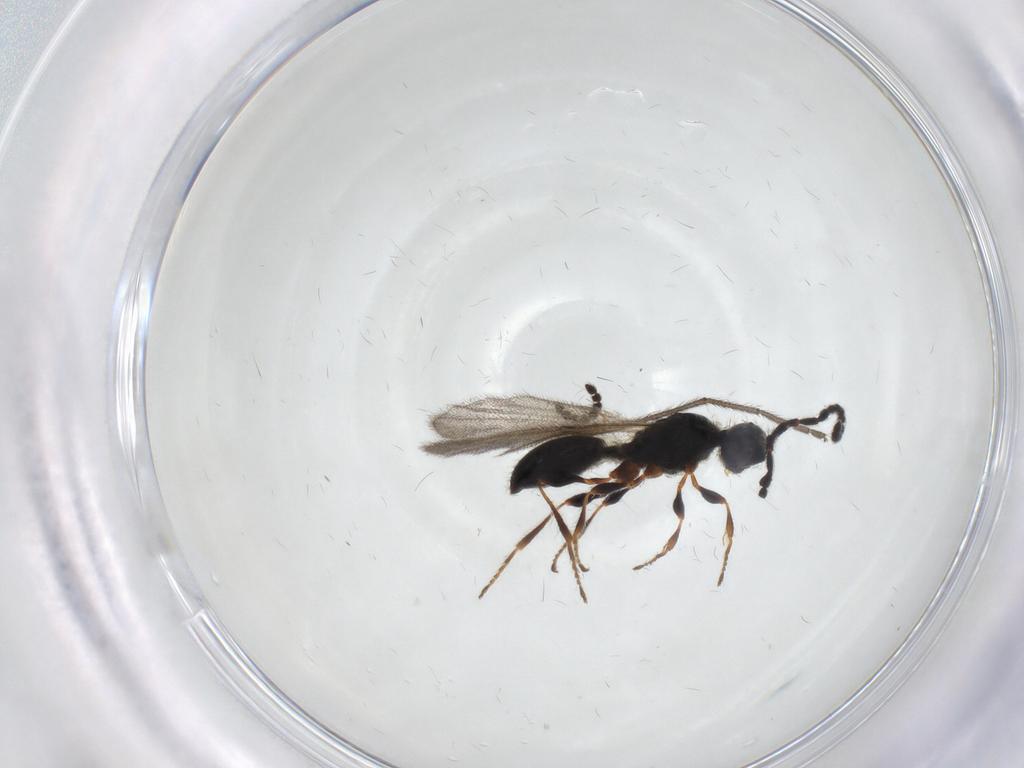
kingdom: Animalia
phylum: Arthropoda
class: Insecta
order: Hymenoptera
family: Diapriidae
